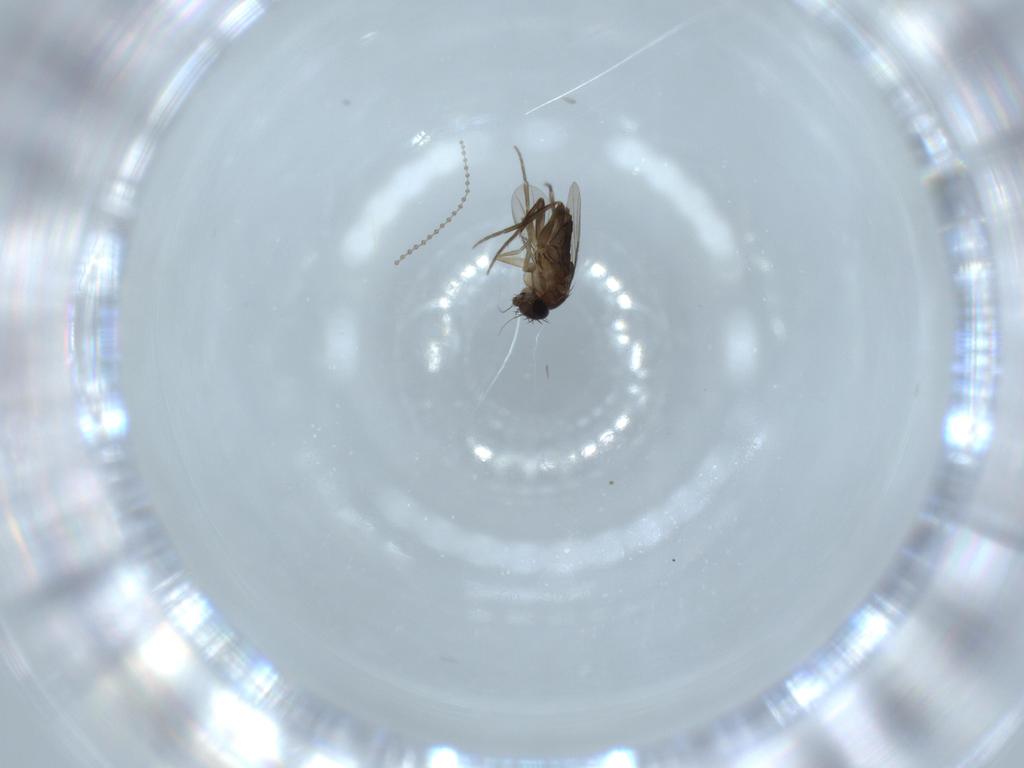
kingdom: Animalia
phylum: Arthropoda
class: Insecta
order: Diptera
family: Phoridae
